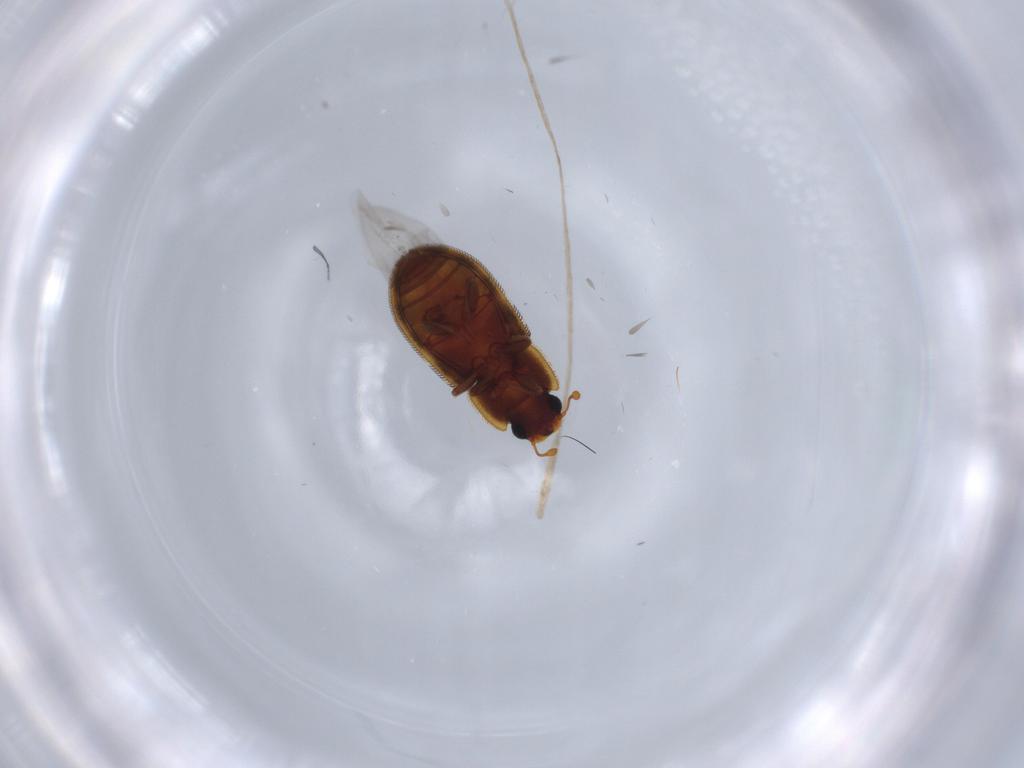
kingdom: Animalia
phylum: Arthropoda
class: Insecta
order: Coleoptera
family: Zopheridae
